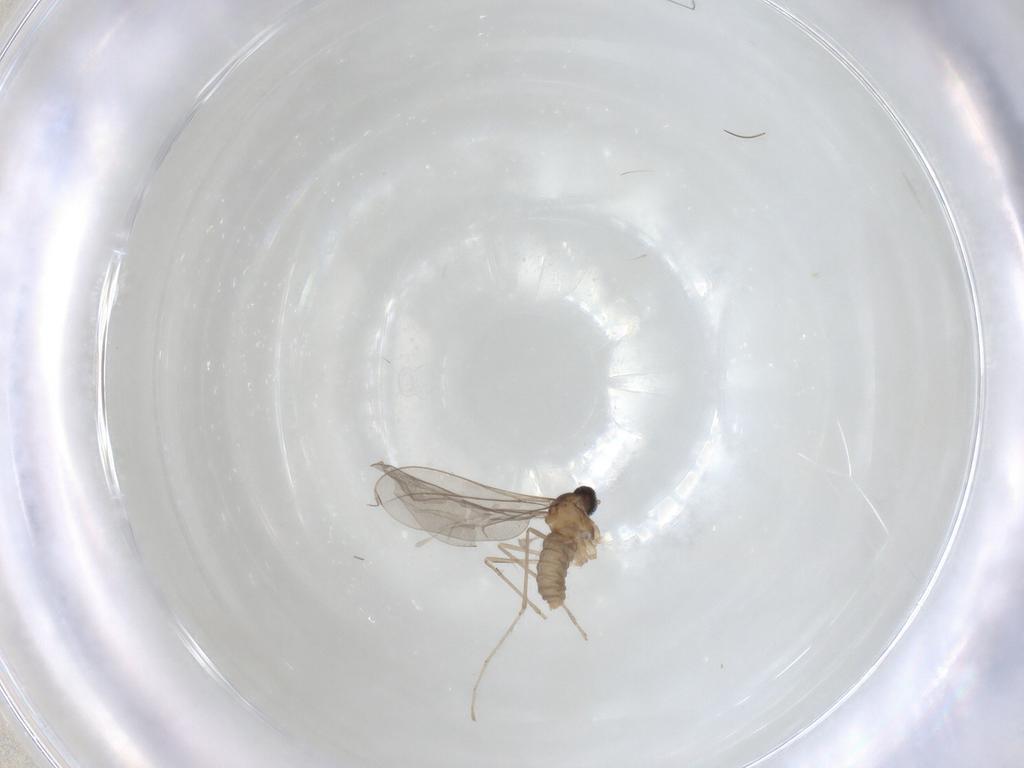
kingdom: Animalia
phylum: Arthropoda
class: Insecta
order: Diptera
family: Cecidomyiidae
